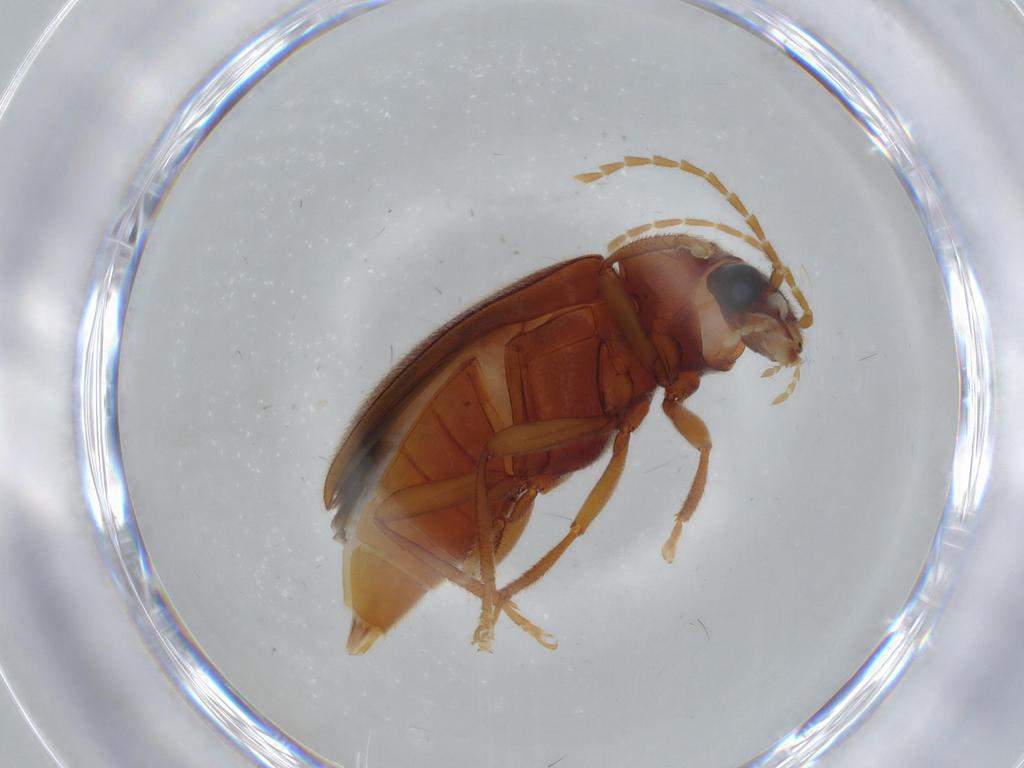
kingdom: Animalia
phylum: Arthropoda
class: Insecta
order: Coleoptera
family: Ptilodactylidae
